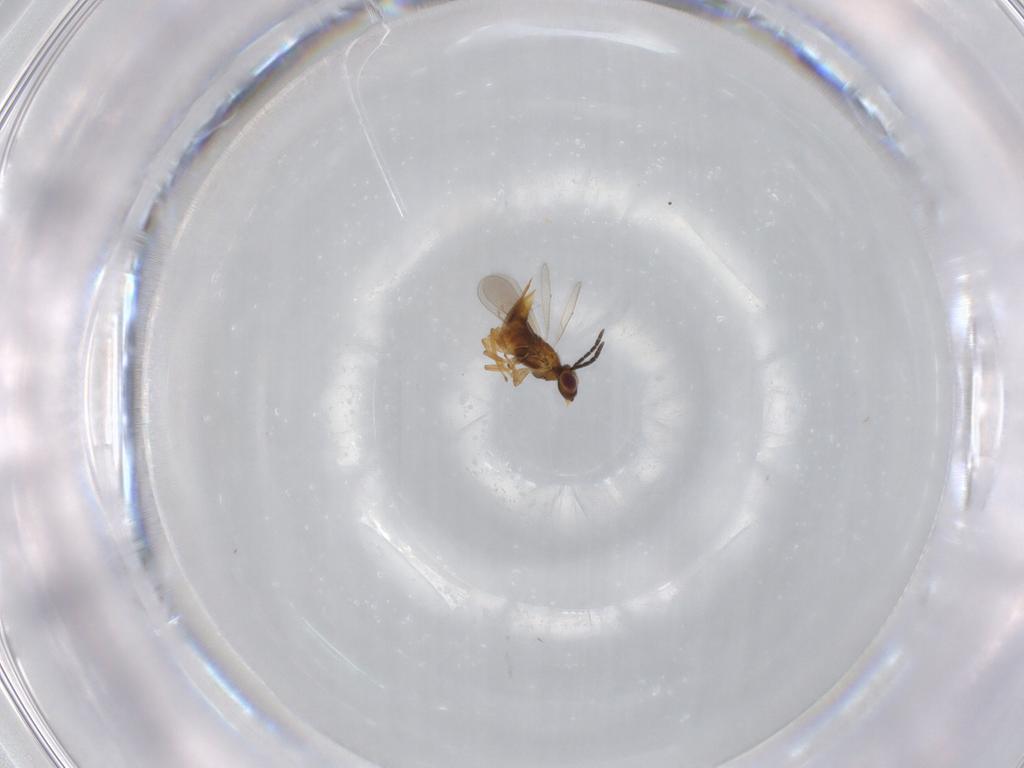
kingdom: Animalia
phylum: Arthropoda
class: Insecta
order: Hymenoptera
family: Aphelinidae
